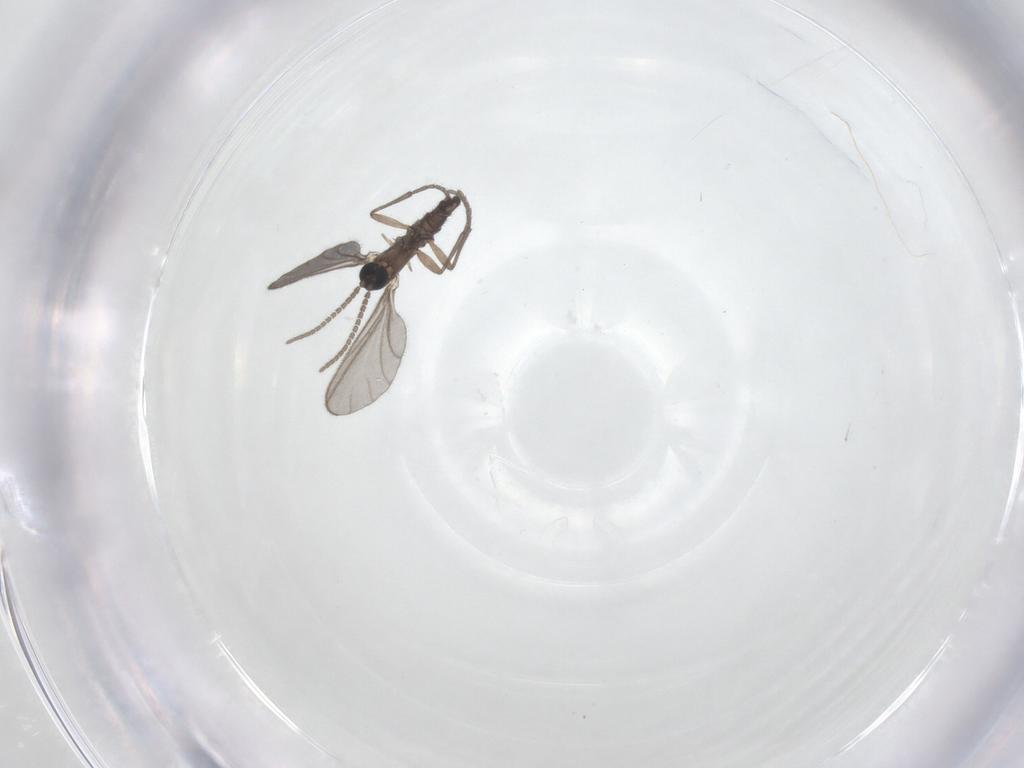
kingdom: Animalia
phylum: Arthropoda
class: Insecta
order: Diptera
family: Sciaridae
